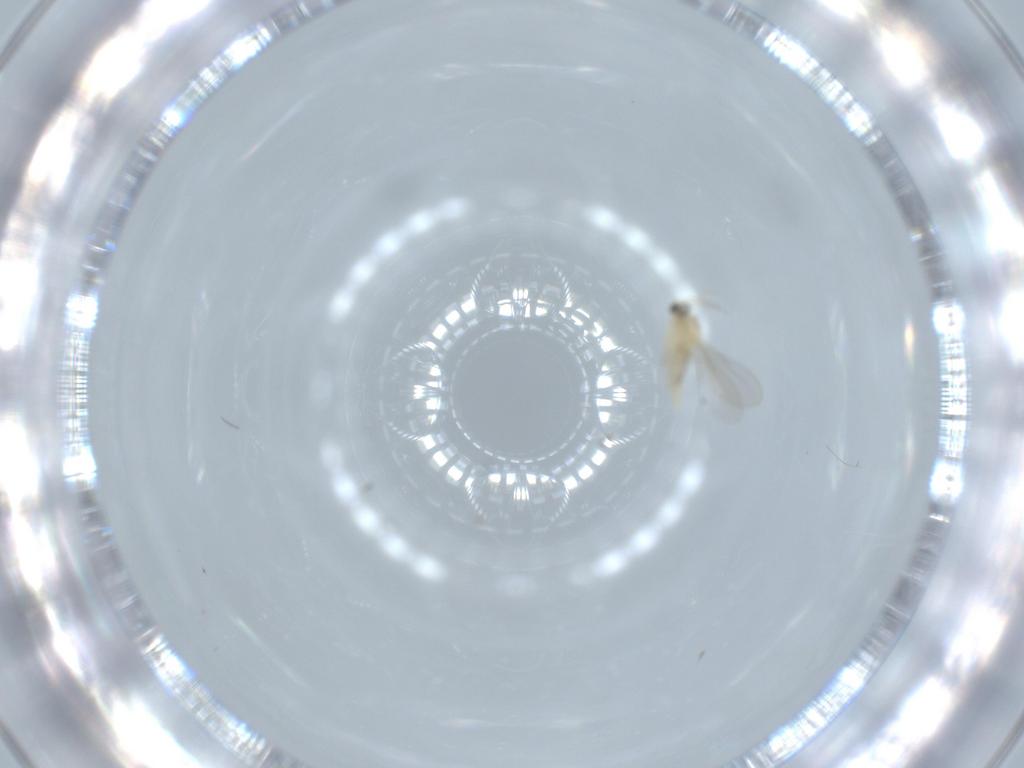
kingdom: Animalia
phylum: Arthropoda
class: Insecta
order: Diptera
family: Cecidomyiidae
